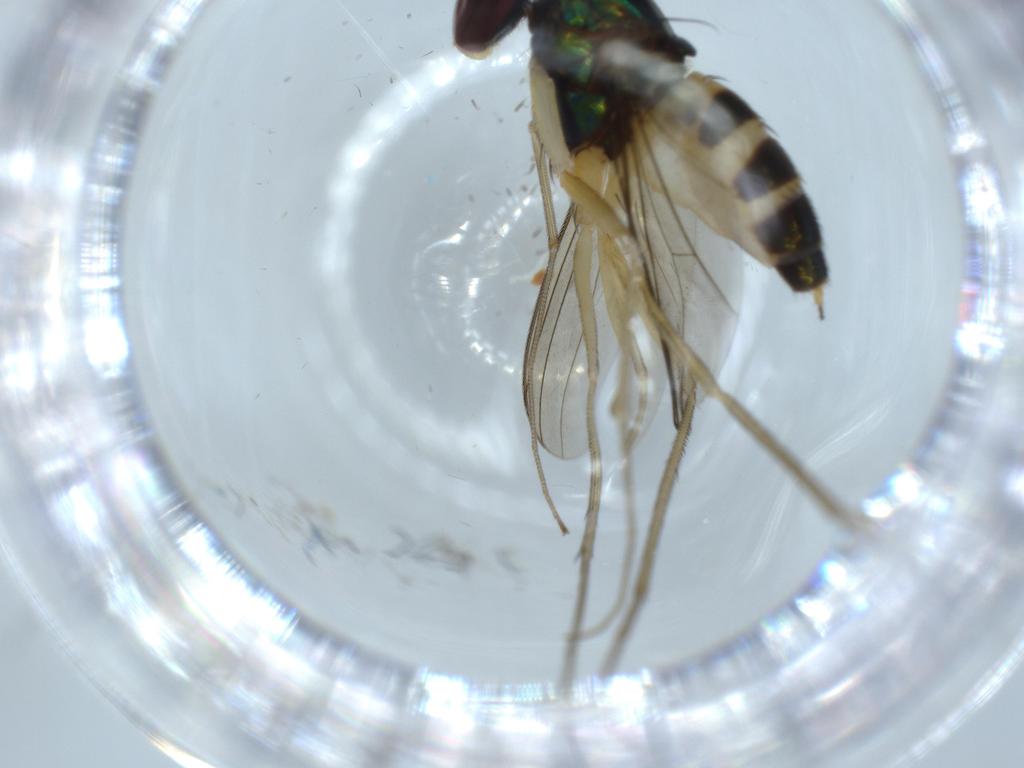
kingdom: Animalia
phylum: Arthropoda
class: Insecta
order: Diptera
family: Dolichopodidae
